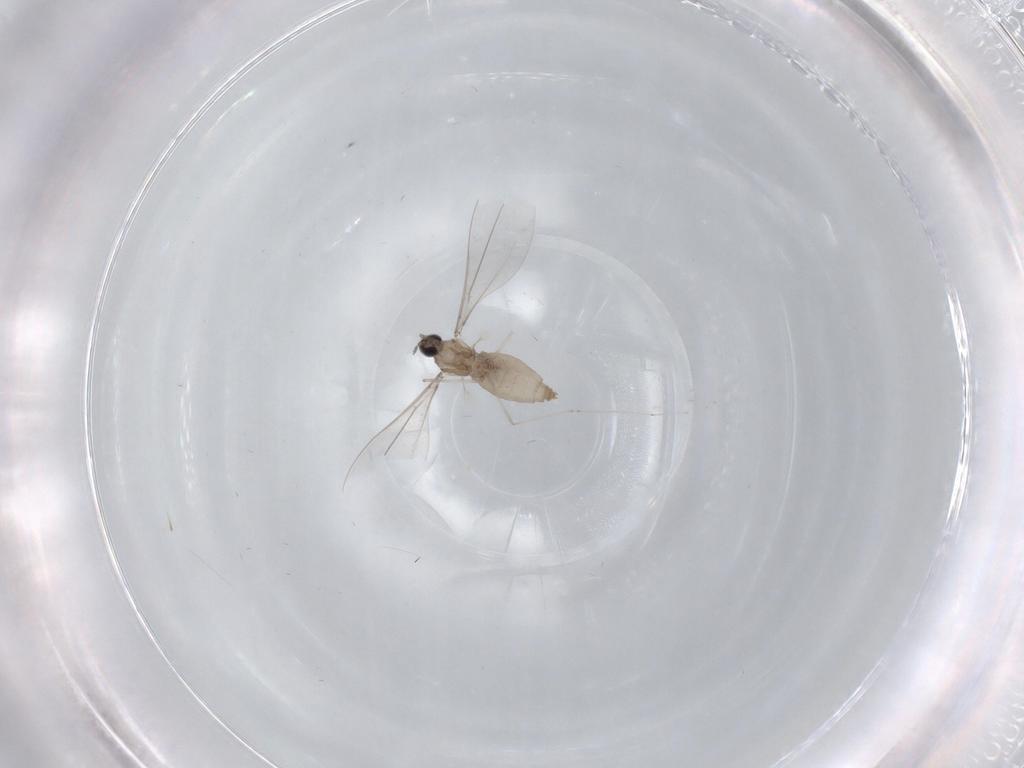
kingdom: Animalia
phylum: Arthropoda
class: Insecta
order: Diptera
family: Cecidomyiidae
